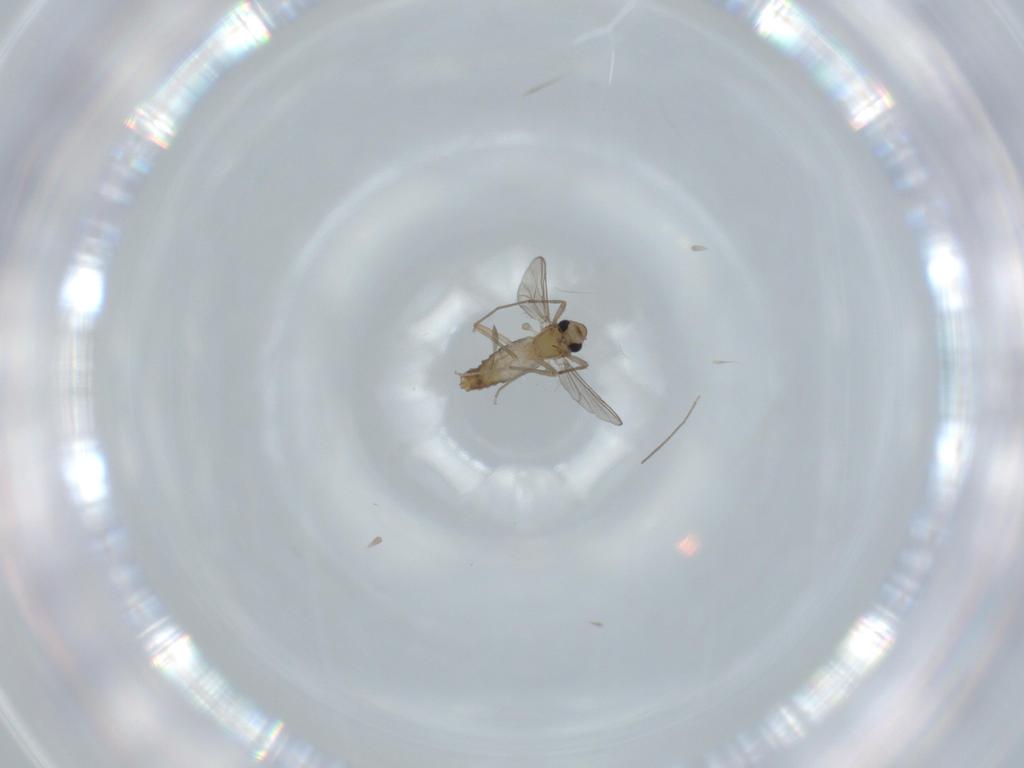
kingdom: Animalia
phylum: Arthropoda
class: Insecta
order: Diptera
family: Chironomidae
